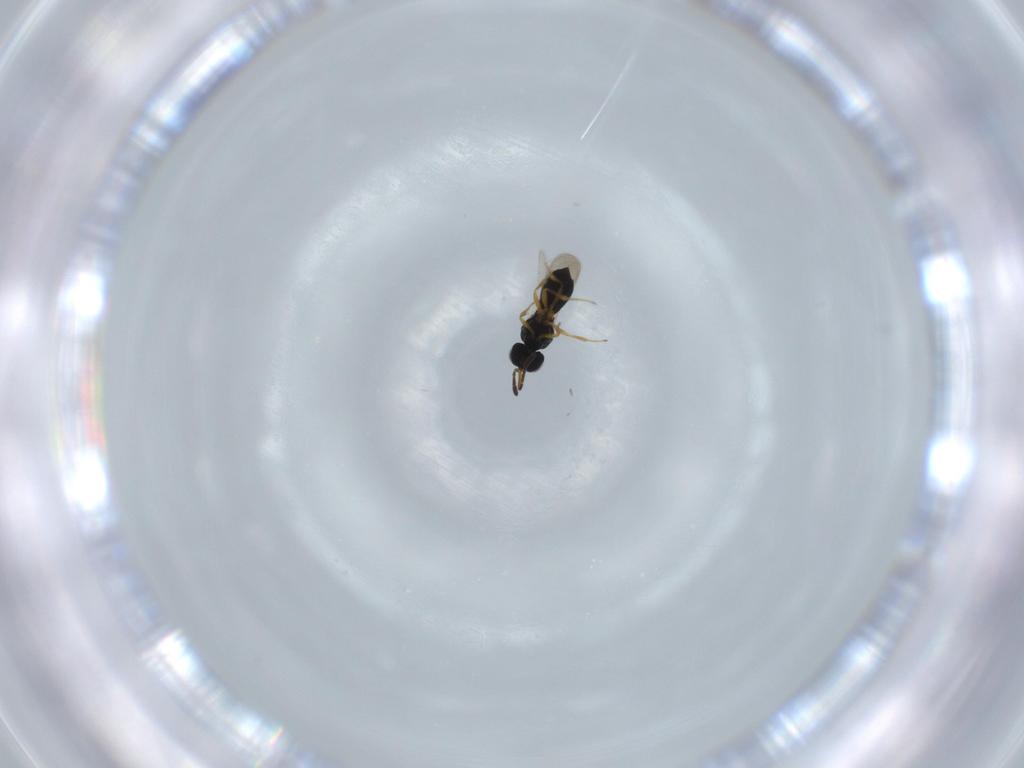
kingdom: Animalia
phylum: Arthropoda
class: Insecta
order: Hymenoptera
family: Scelionidae
